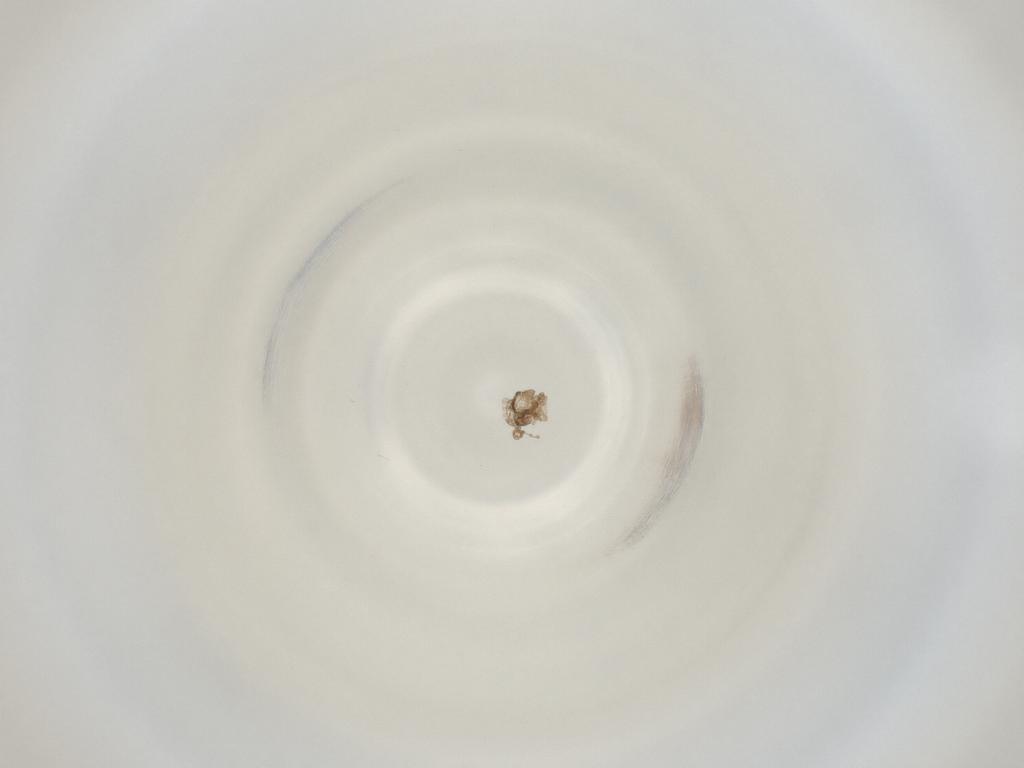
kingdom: Animalia
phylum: Arthropoda
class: Insecta
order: Diptera
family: Cecidomyiidae
